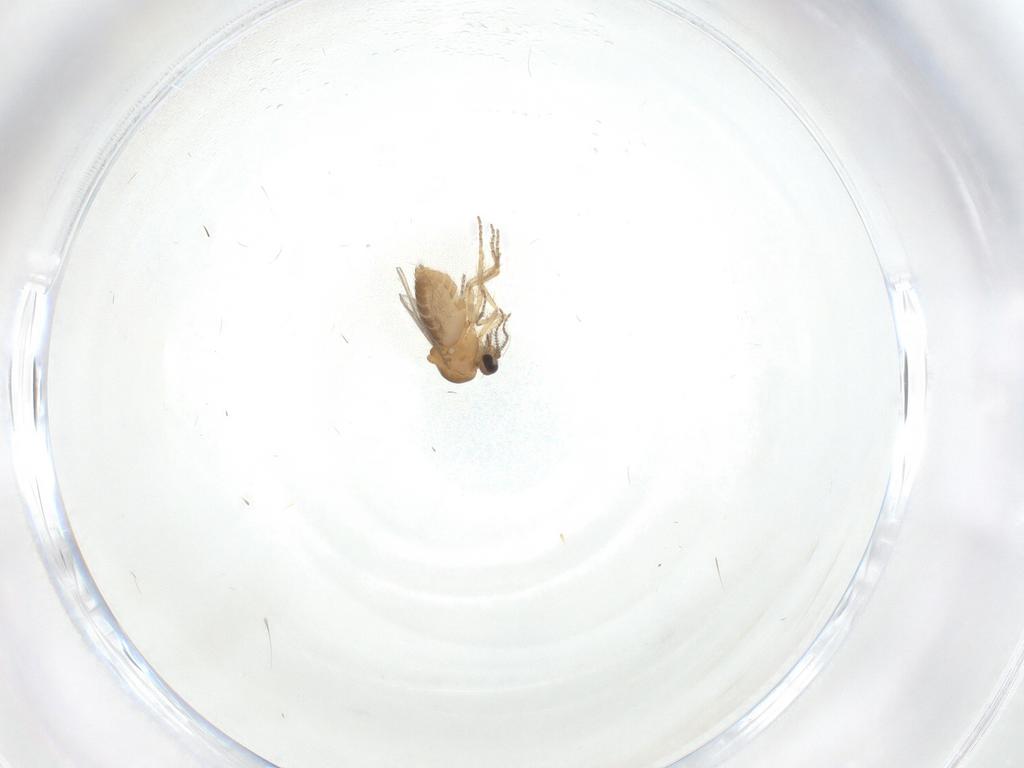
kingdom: Animalia
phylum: Arthropoda
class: Insecta
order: Diptera
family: Ceratopogonidae
